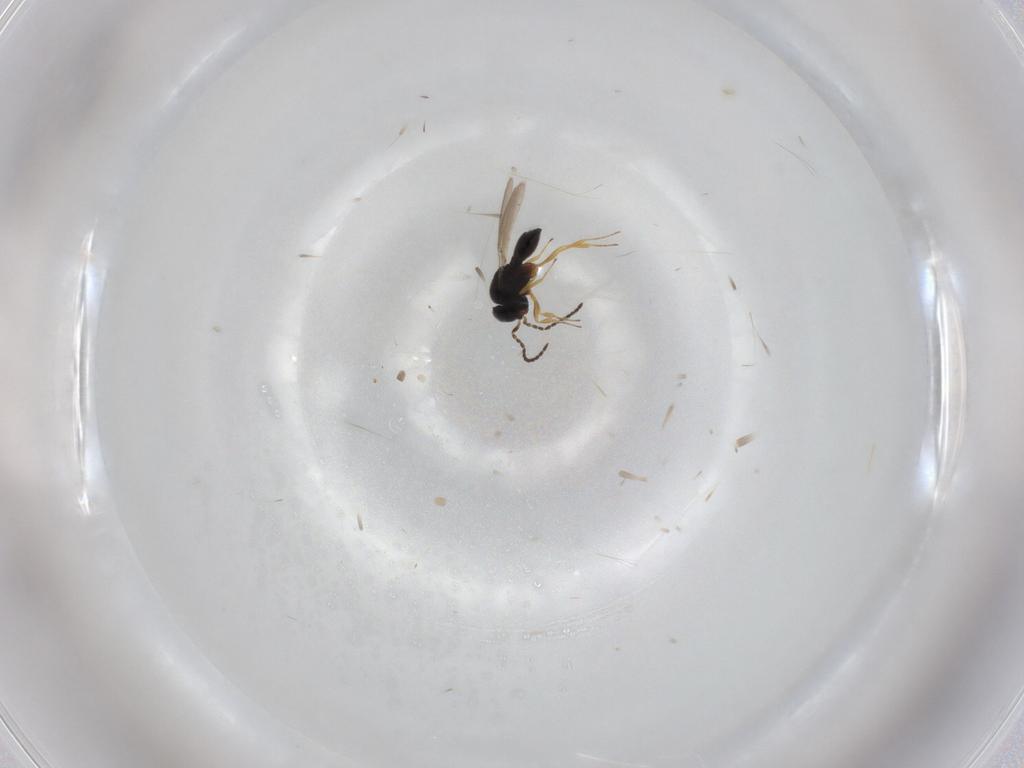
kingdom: Animalia
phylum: Arthropoda
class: Insecta
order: Hymenoptera
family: Scelionidae
